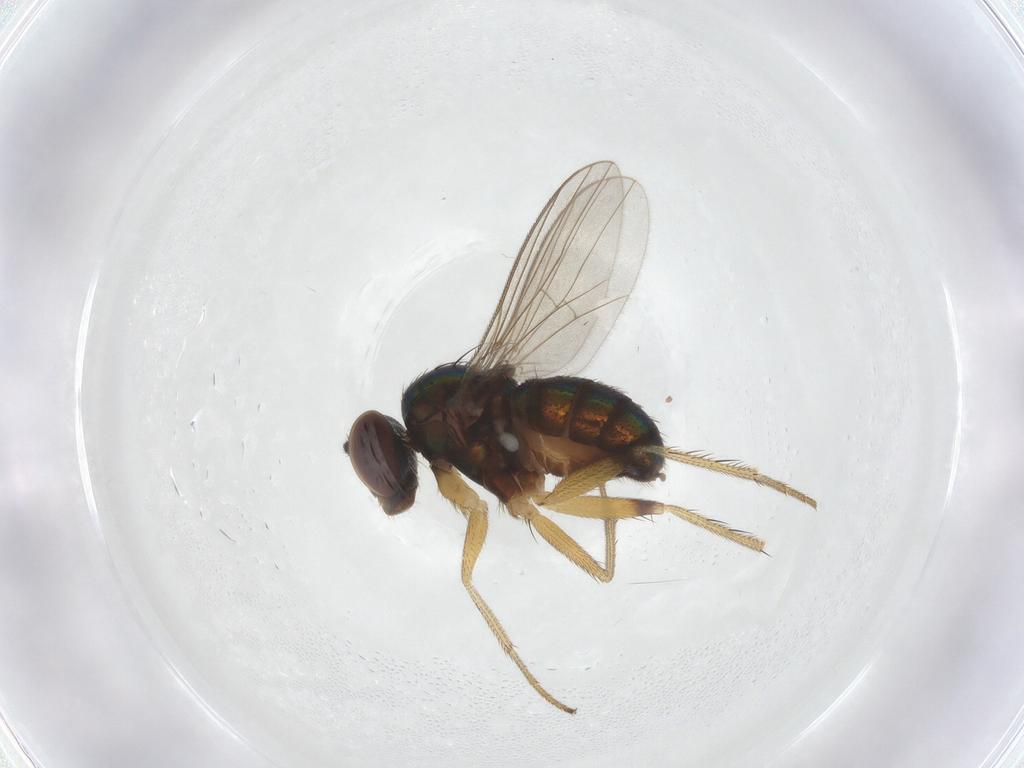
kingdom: Animalia
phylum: Arthropoda
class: Insecta
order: Diptera
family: Dolichopodidae
